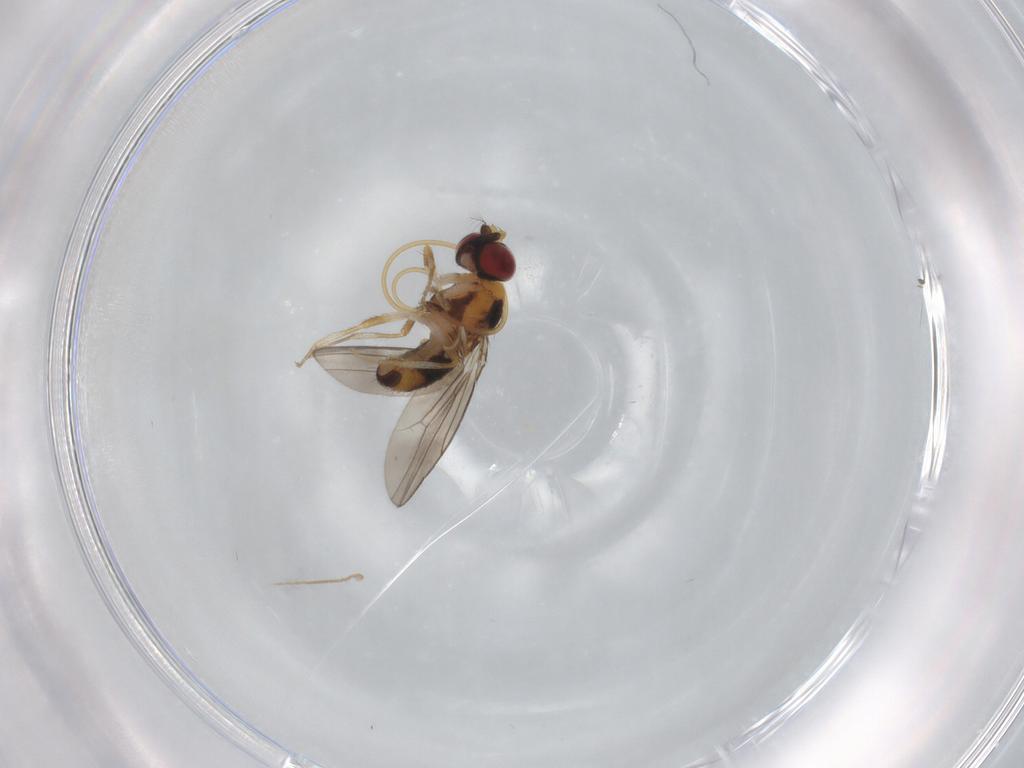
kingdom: Animalia
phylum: Arthropoda
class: Insecta
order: Diptera
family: Drosophilidae
